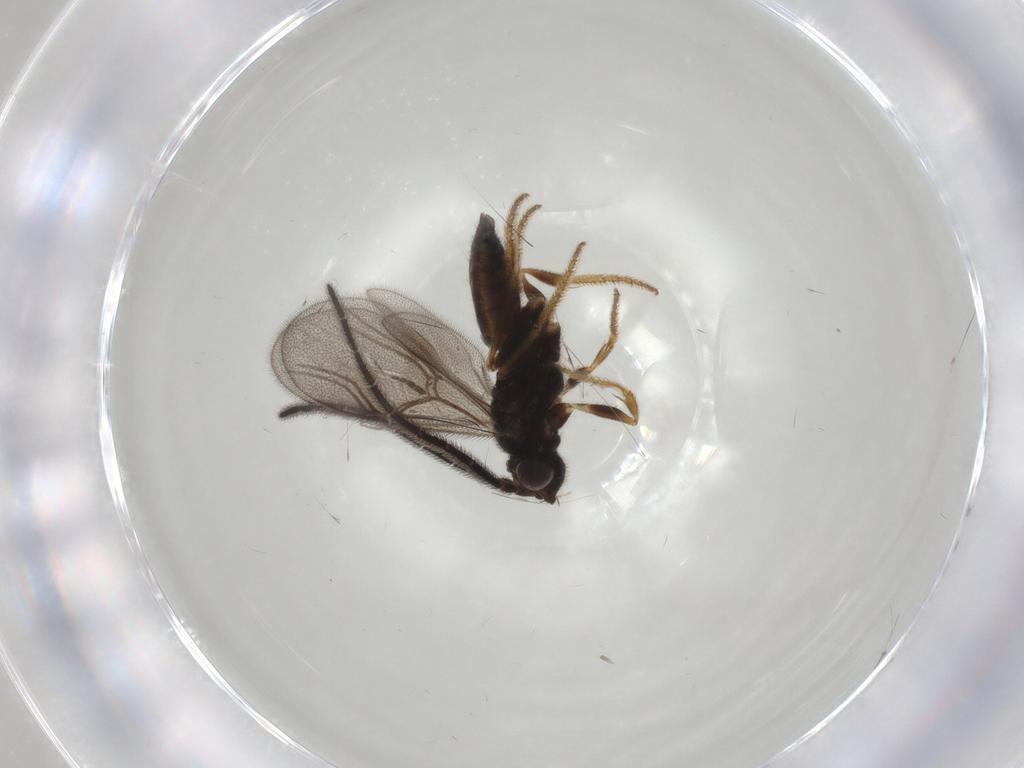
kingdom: Animalia
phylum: Arthropoda
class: Insecta
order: Hymenoptera
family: Dryinidae
